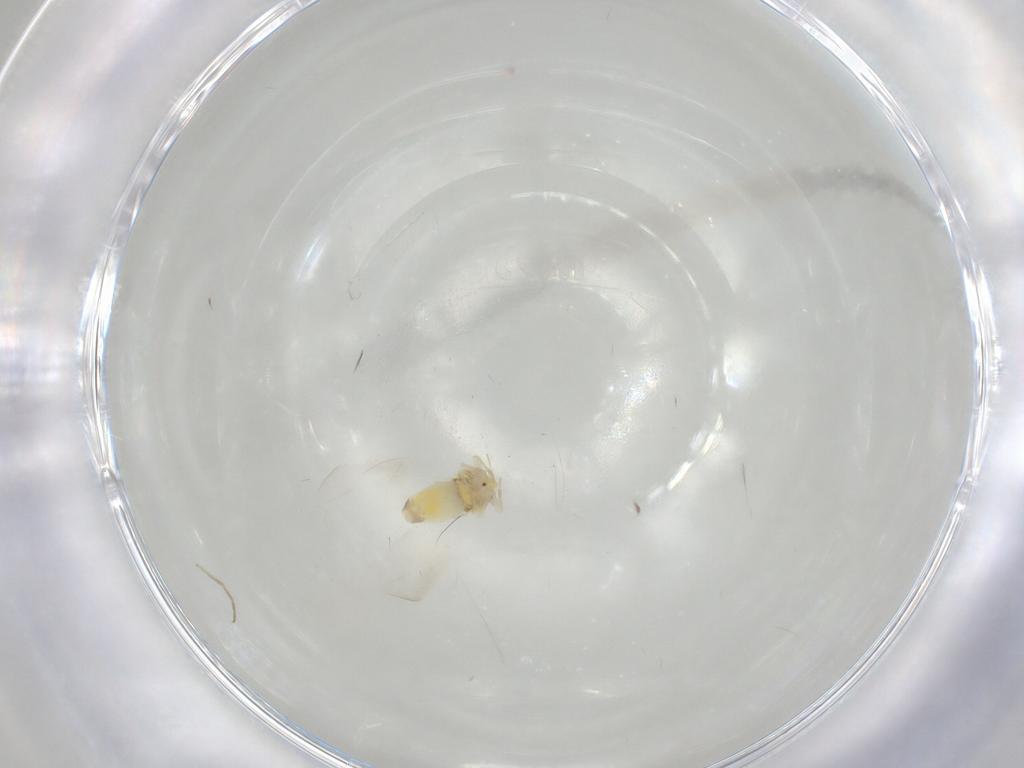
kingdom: Animalia
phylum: Arthropoda
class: Insecta
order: Hemiptera
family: Aleyrodidae
